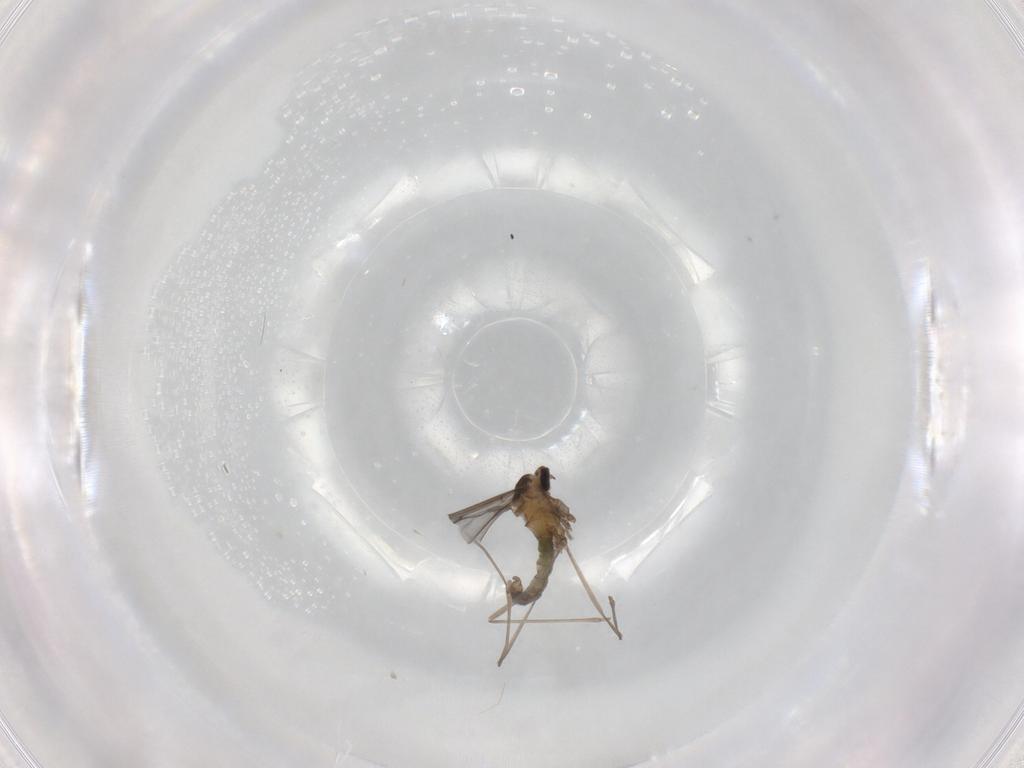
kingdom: Animalia
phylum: Arthropoda
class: Insecta
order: Diptera
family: Cecidomyiidae
